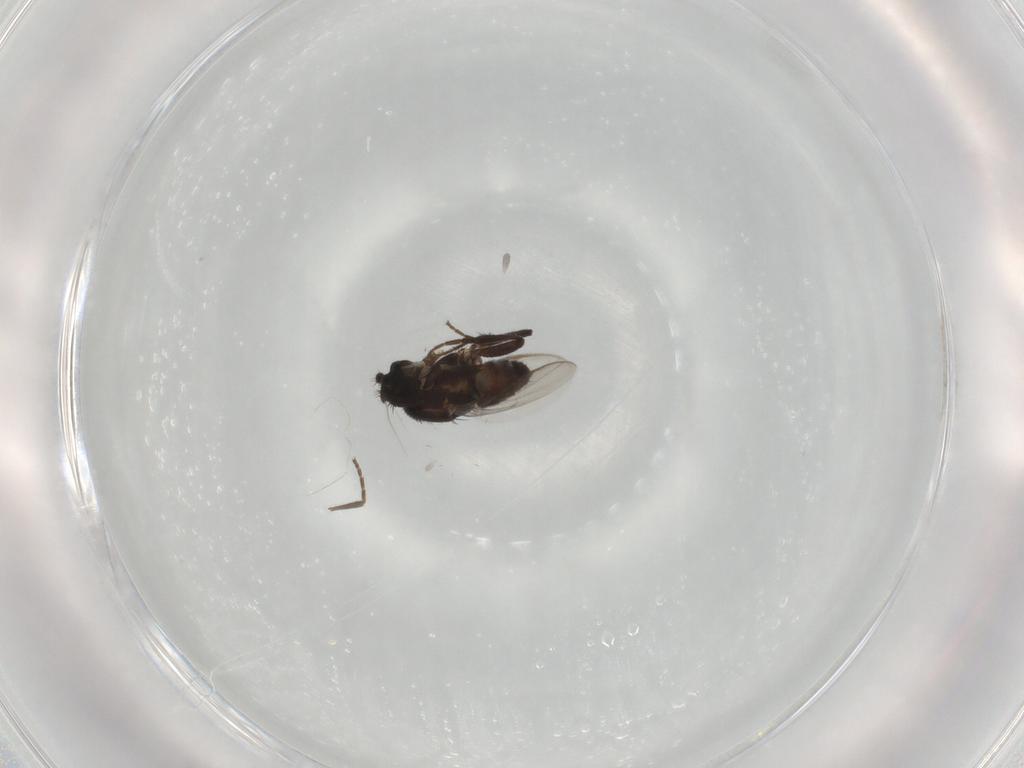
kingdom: Animalia
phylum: Arthropoda
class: Insecta
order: Diptera
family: Sphaeroceridae
